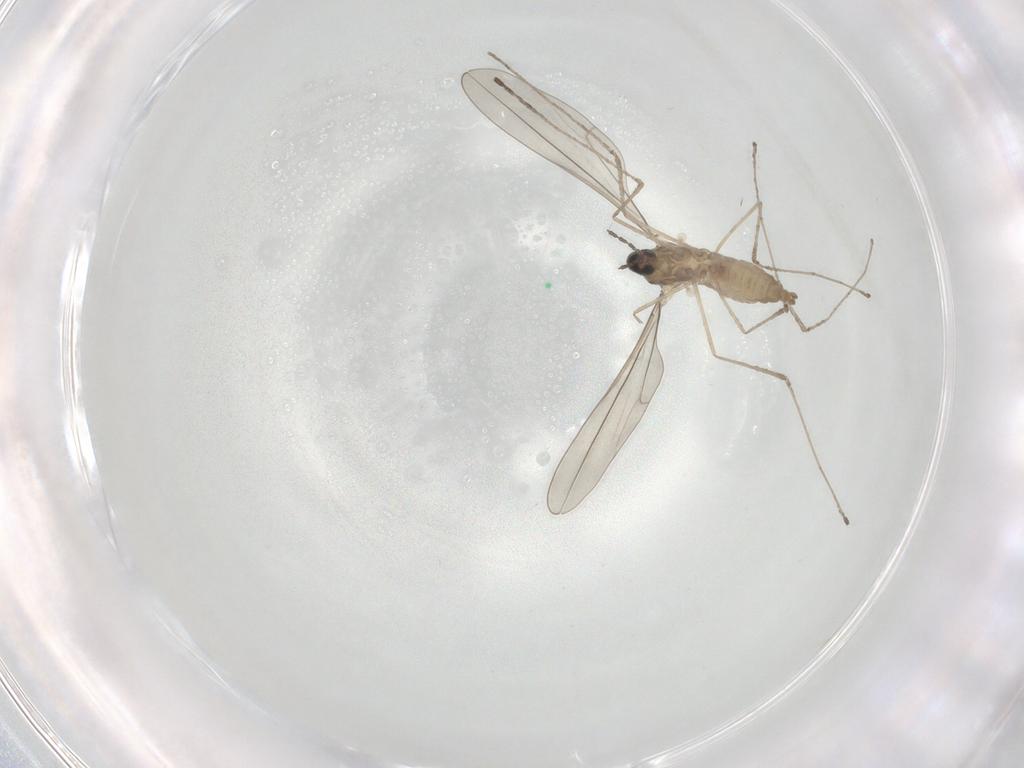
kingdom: Animalia
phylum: Arthropoda
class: Insecta
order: Diptera
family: Cecidomyiidae
